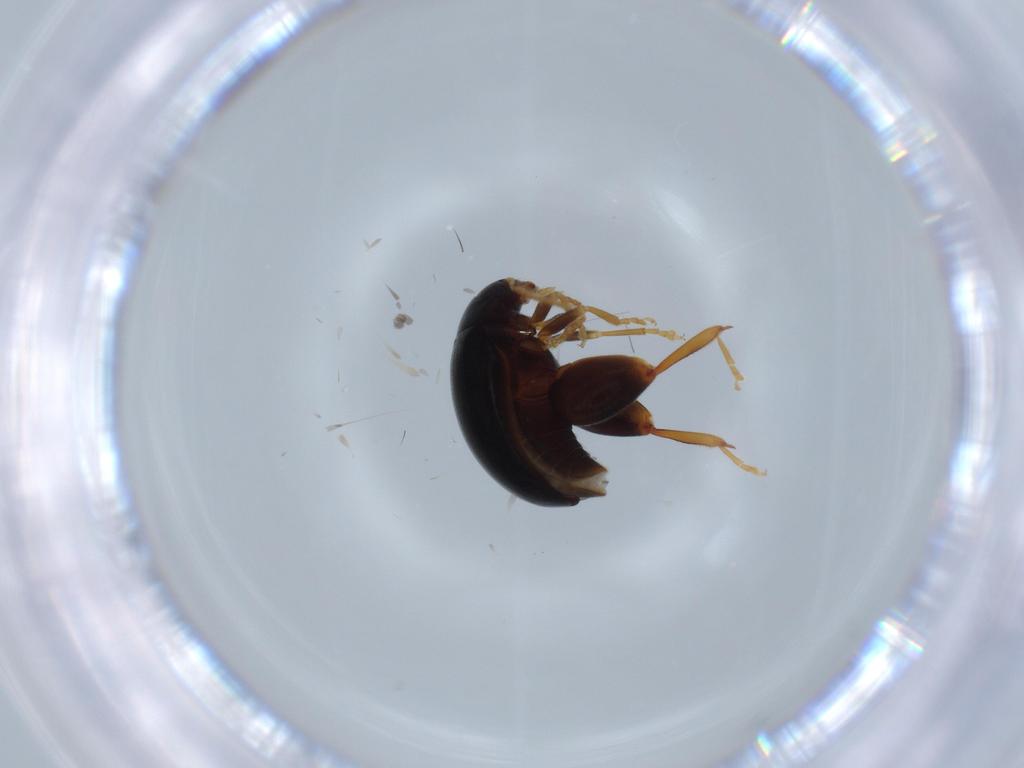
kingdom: Animalia
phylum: Arthropoda
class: Insecta
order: Coleoptera
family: Chrysomelidae
